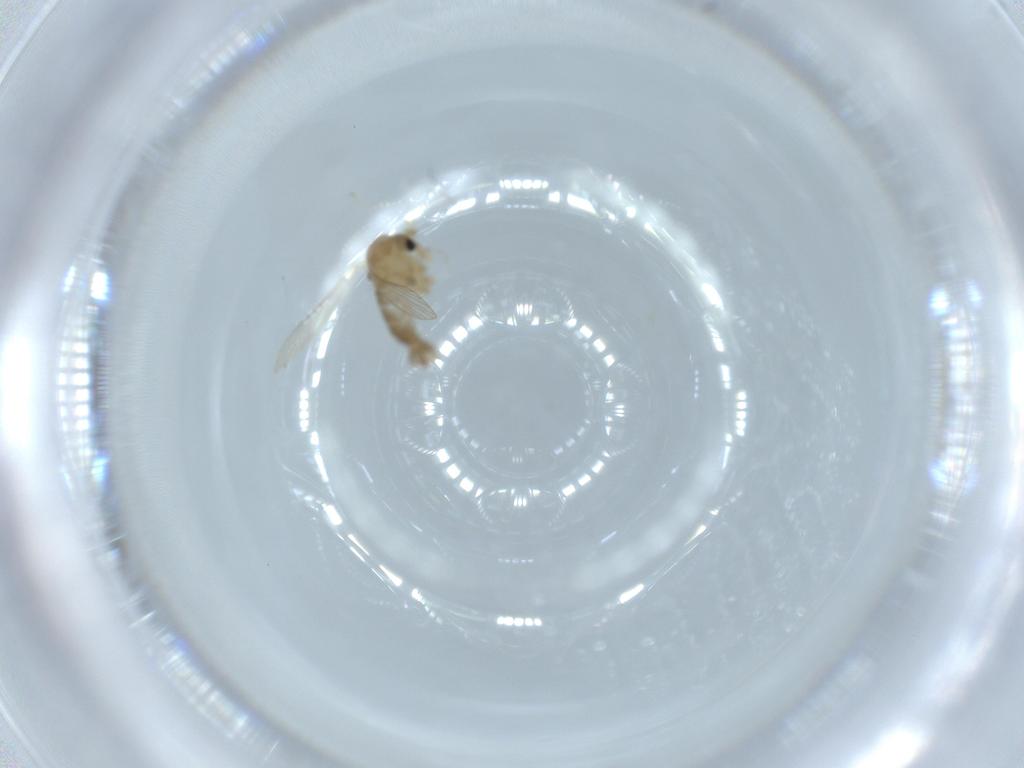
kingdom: Animalia
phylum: Arthropoda
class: Insecta
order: Diptera
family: Psychodidae
